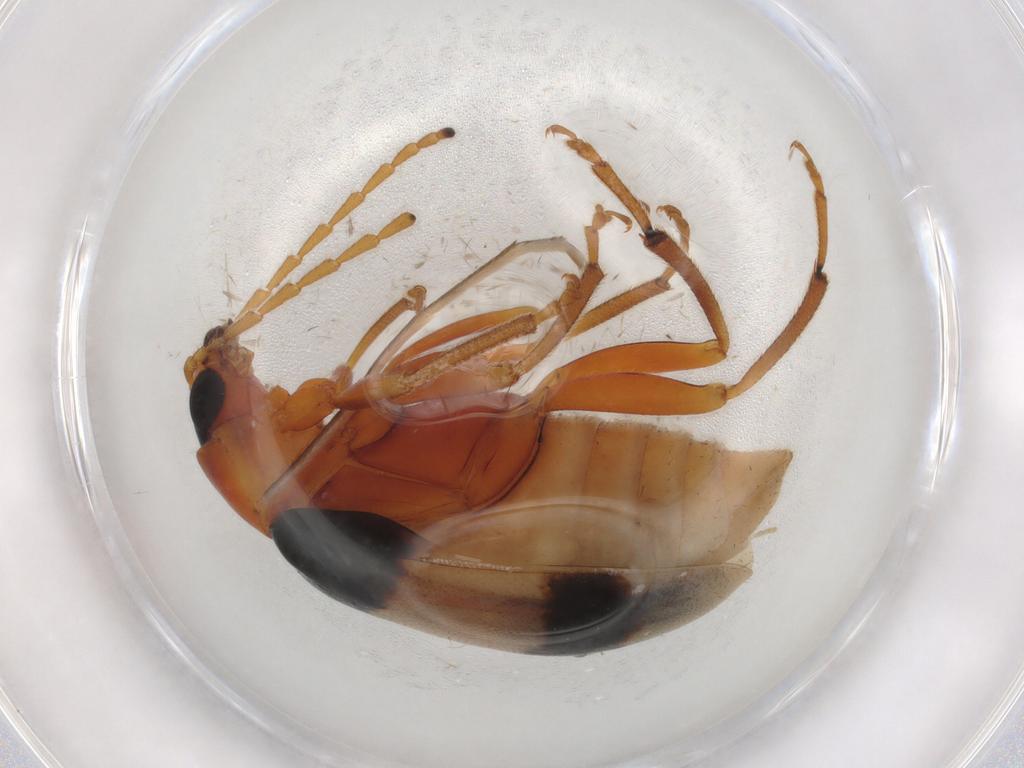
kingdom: Animalia
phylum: Arthropoda
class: Insecta
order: Coleoptera
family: Chrysomelidae
